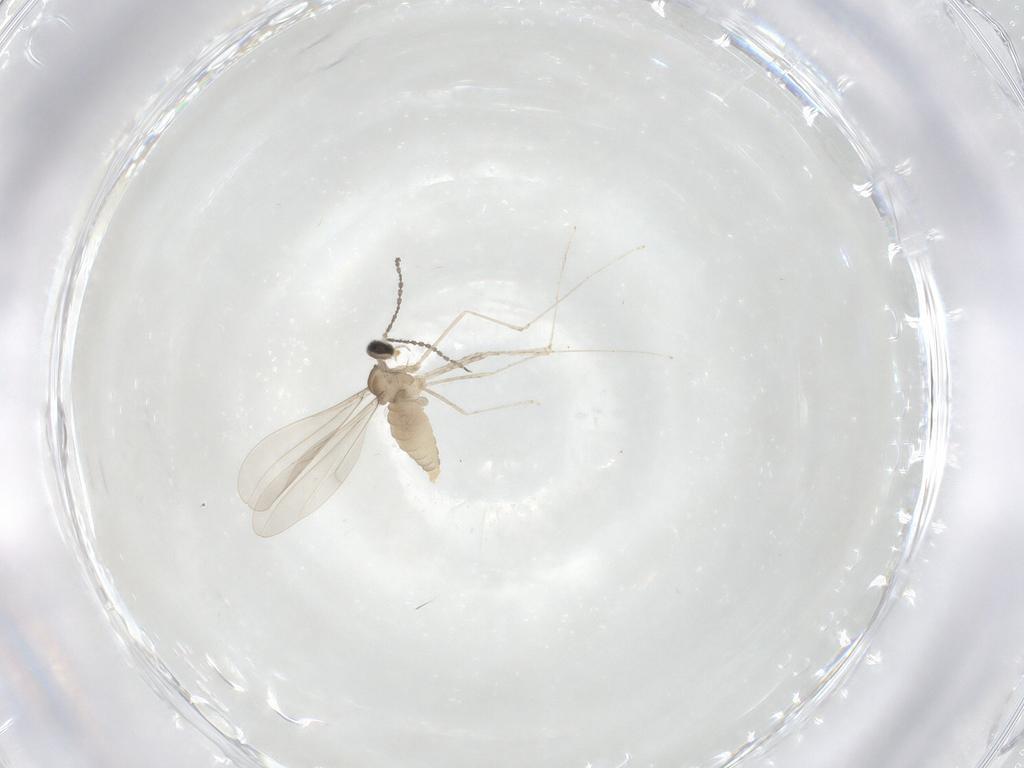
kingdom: Animalia
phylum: Arthropoda
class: Insecta
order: Diptera
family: Cecidomyiidae
